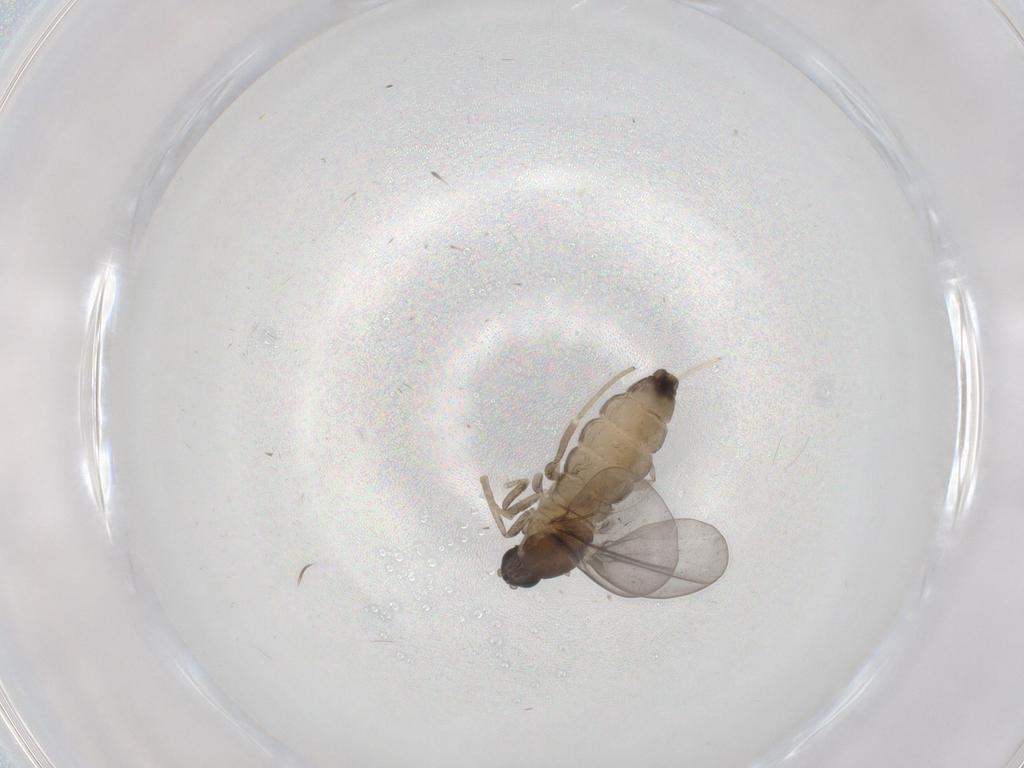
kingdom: Animalia
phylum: Arthropoda
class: Insecta
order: Diptera
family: Cecidomyiidae
